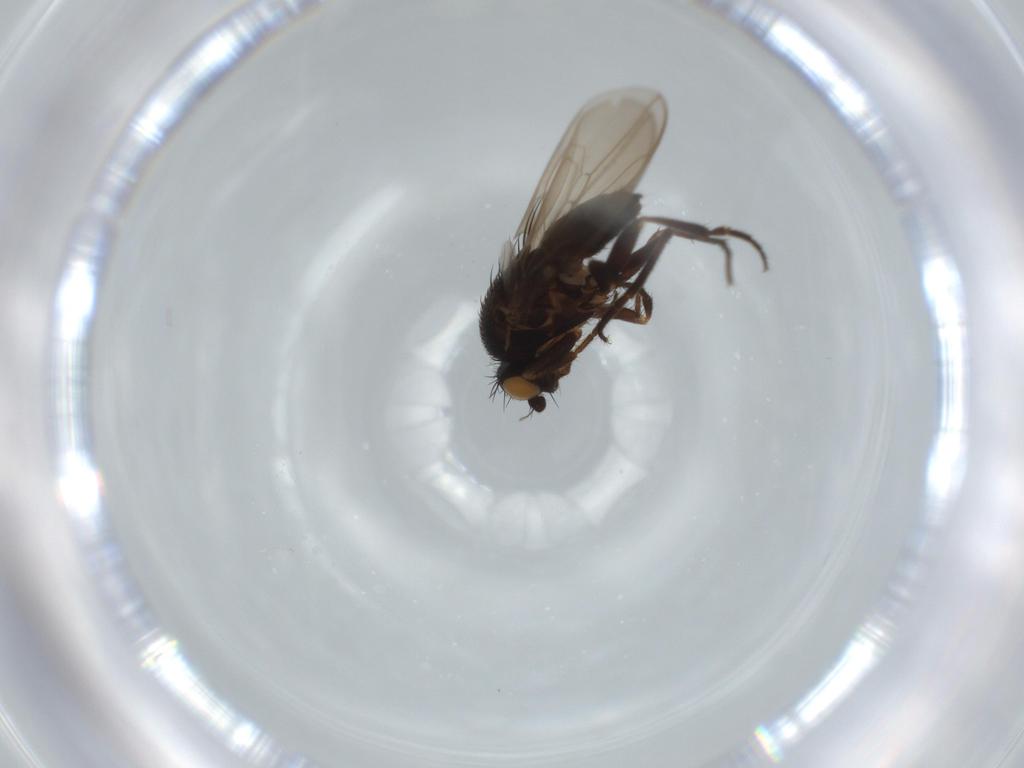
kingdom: Animalia
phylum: Arthropoda
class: Insecta
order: Diptera
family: Sphaeroceridae
